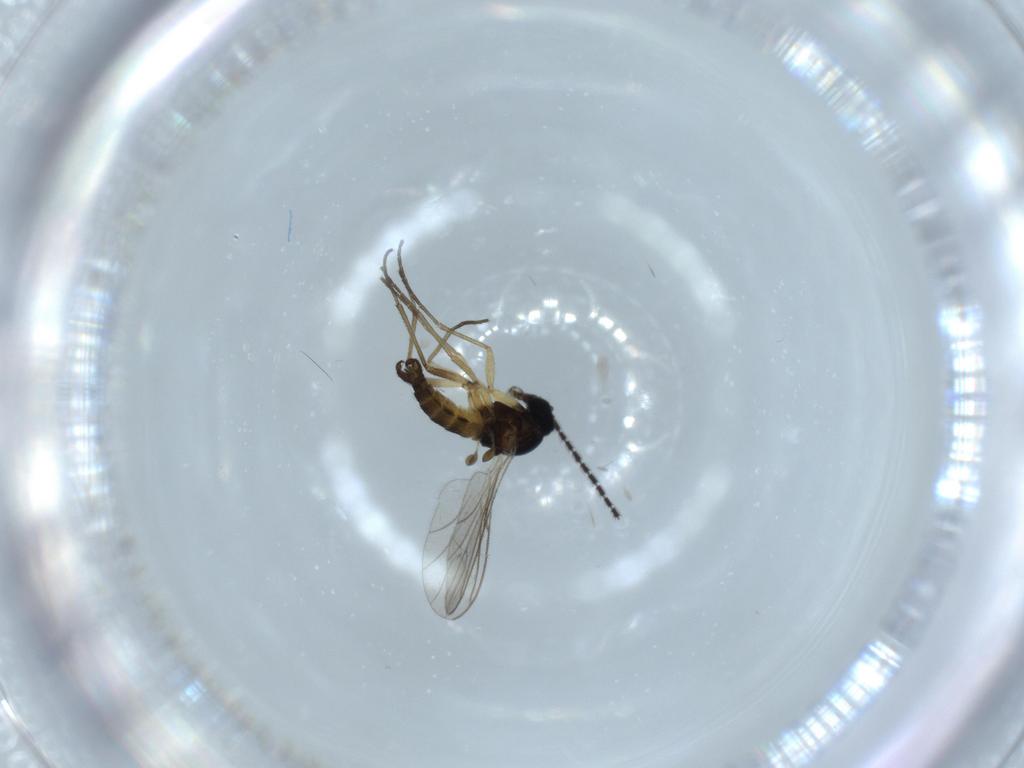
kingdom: Animalia
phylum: Arthropoda
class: Insecta
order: Diptera
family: Sciaridae
